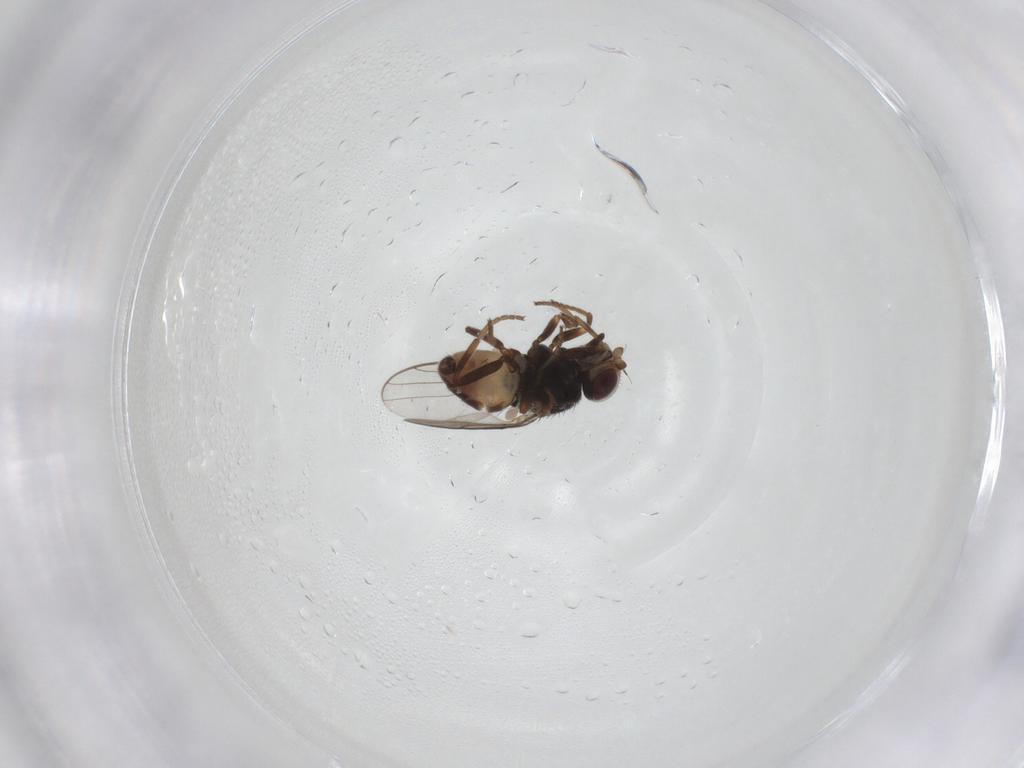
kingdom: Animalia
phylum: Arthropoda
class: Insecta
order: Diptera
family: Chloropidae
